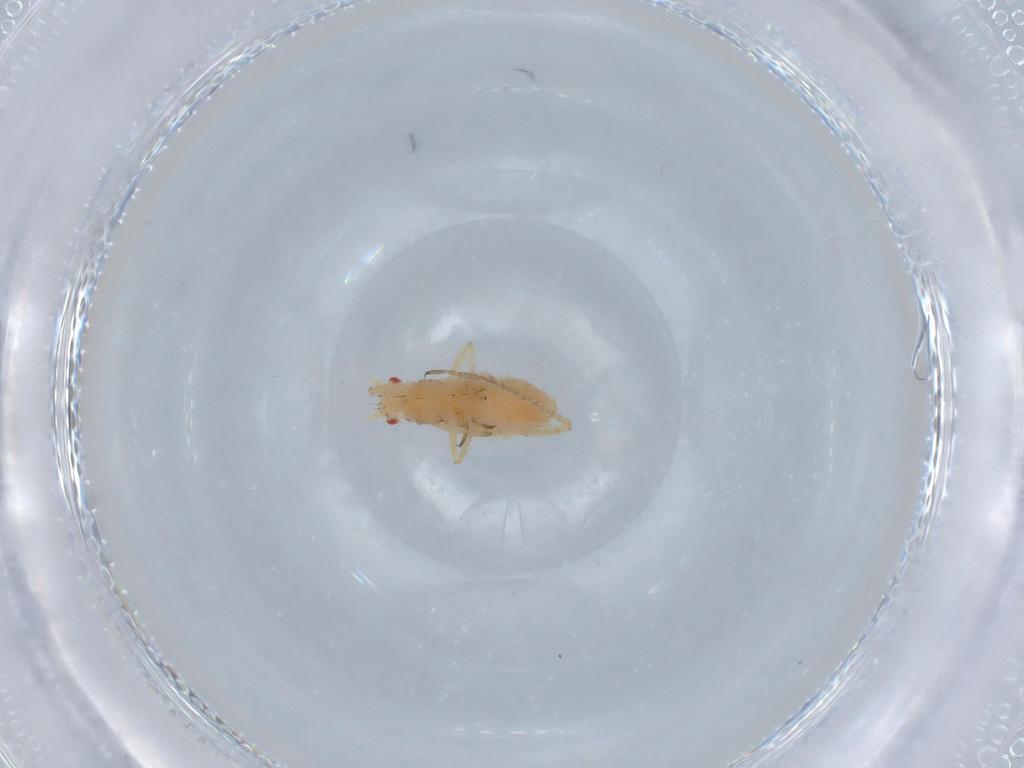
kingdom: Animalia
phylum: Arthropoda
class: Insecta
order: Hemiptera
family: Aphididae
